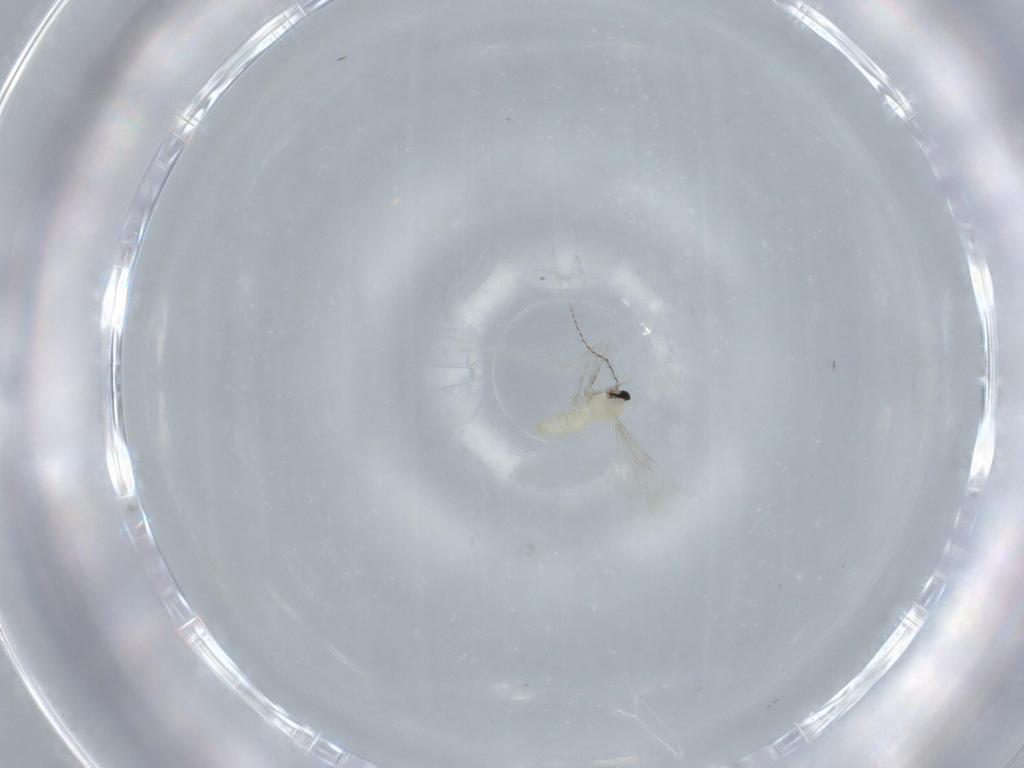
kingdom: Animalia
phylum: Arthropoda
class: Insecta
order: Diptera
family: Cecidomyiidae
